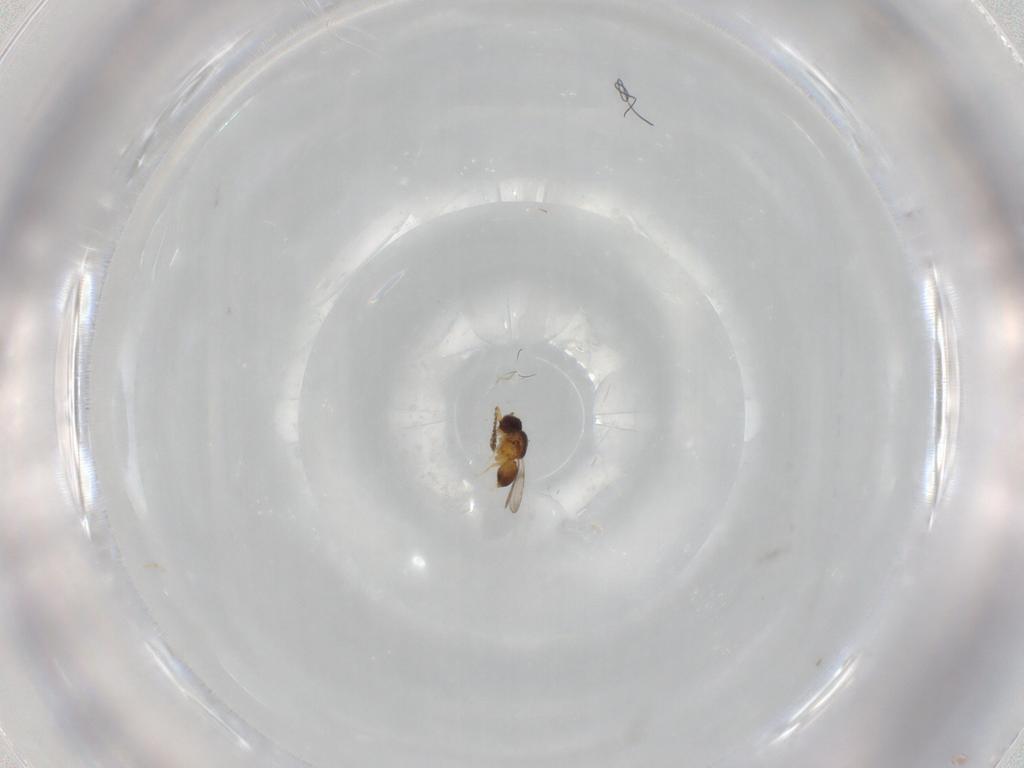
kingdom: Animalia
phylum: Arthropoda
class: Insecta
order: Hymenoptera
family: Ceraphronidae
